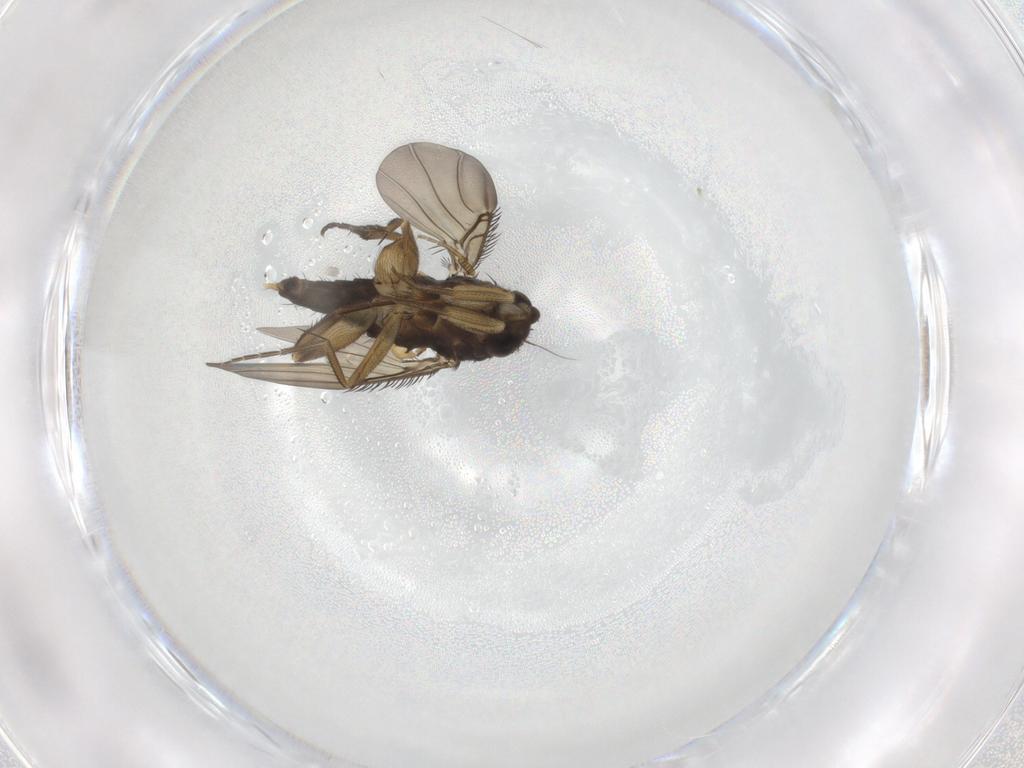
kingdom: Animalia
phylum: Arthropoda
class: Insecta
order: Diptera
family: Phoridae
